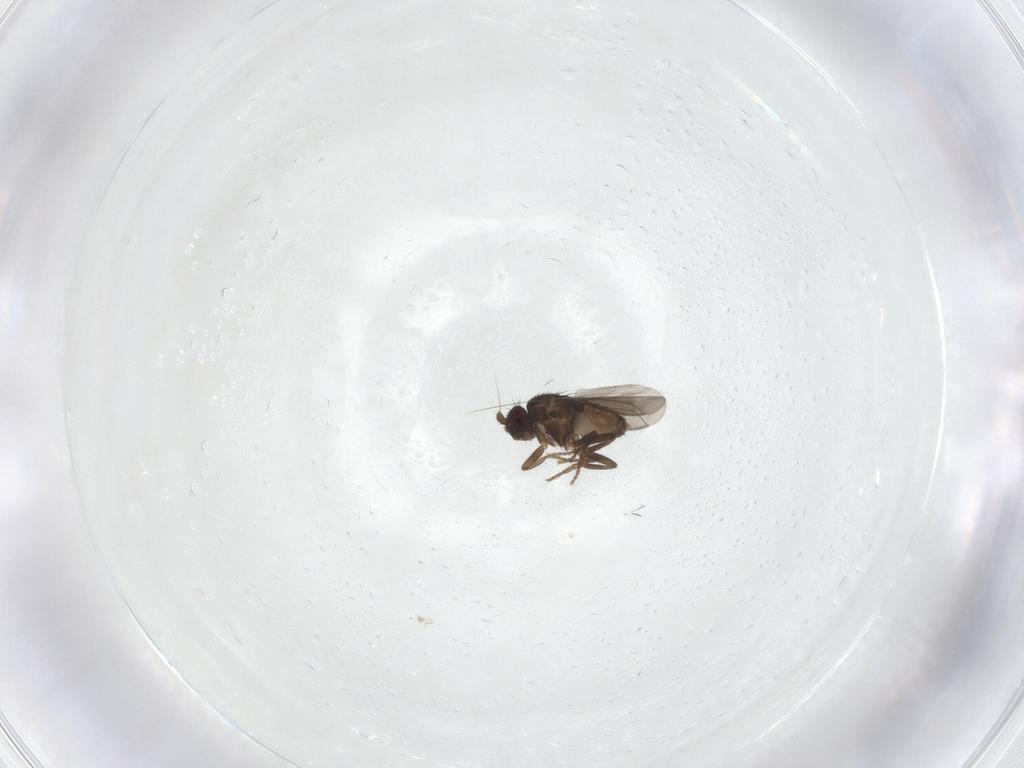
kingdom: Animalia
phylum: Arthropoda
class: Insecta
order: Diptera
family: Sphaeroceridae
